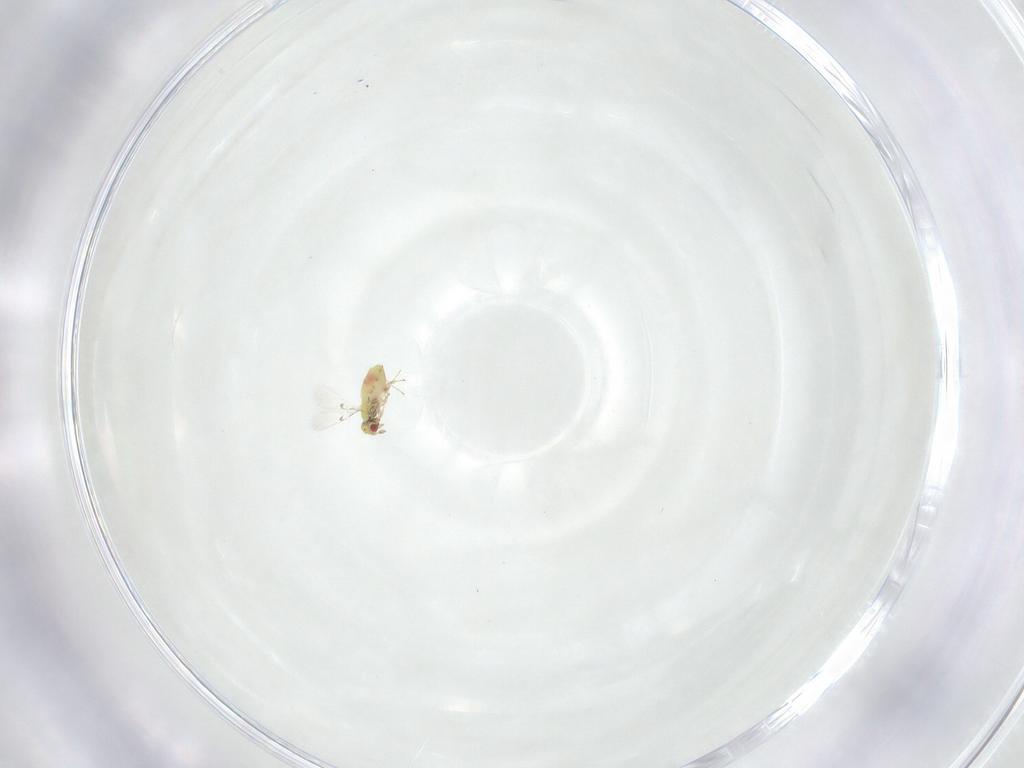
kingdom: Animalia
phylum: Arthropoda
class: Insecta
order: Hymenoptera
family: Trichogrammatidae
